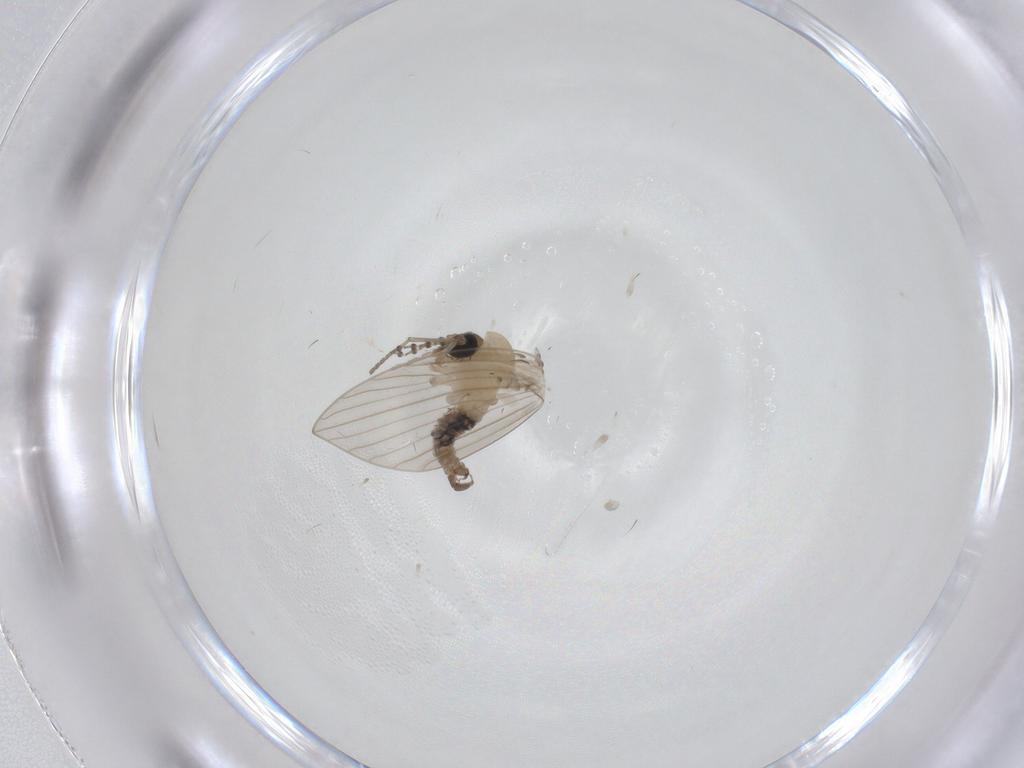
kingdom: Animalia
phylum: Arthropoda
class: Insecta
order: Diptera
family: Psychodidae
